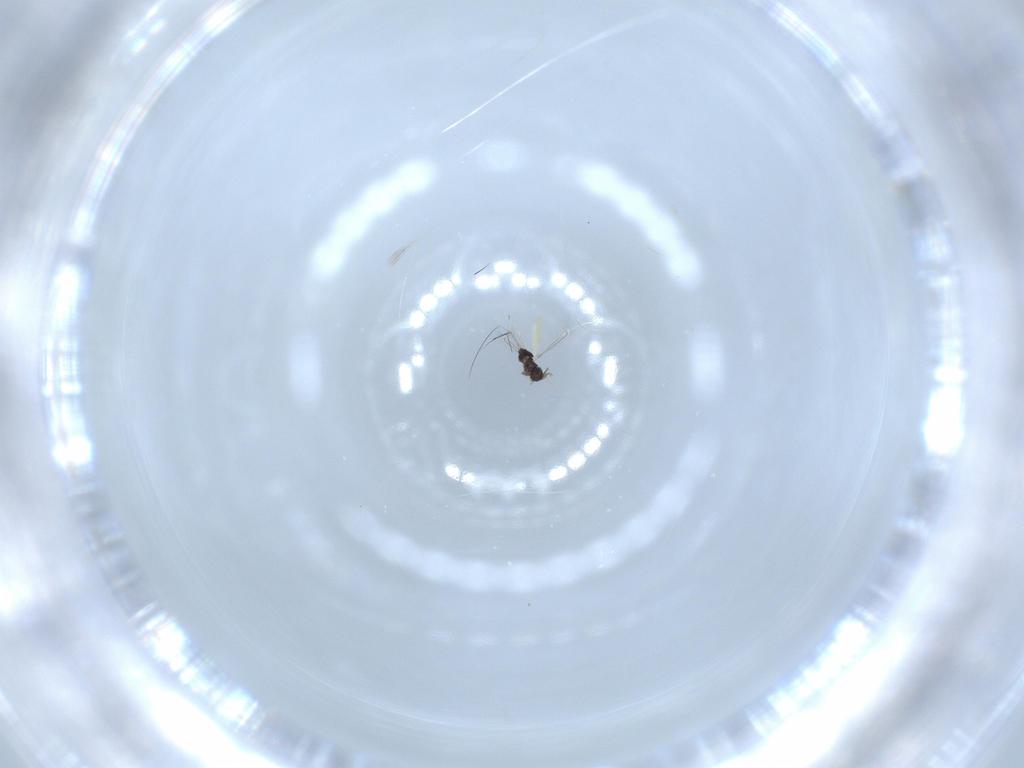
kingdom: Animalia
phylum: Arthropoda
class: Insecta
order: Hymenoptera
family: Mymaridae
